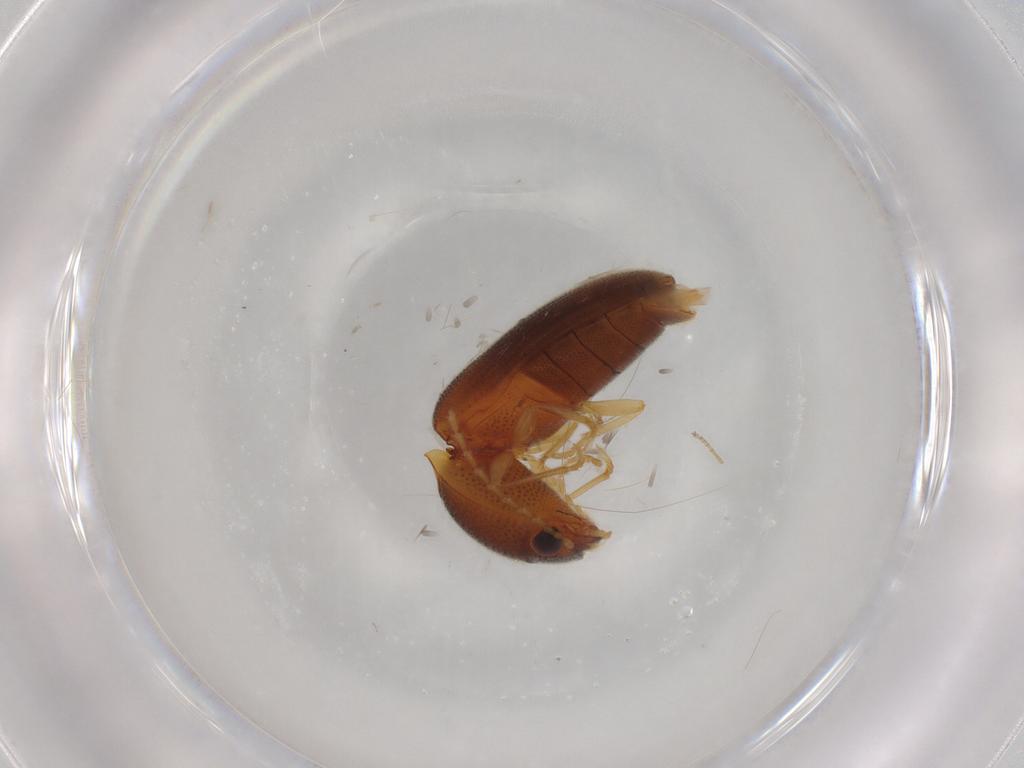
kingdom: Animalia
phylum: Arthropoda
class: Insecta
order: Coleoptera
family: Elateridae
